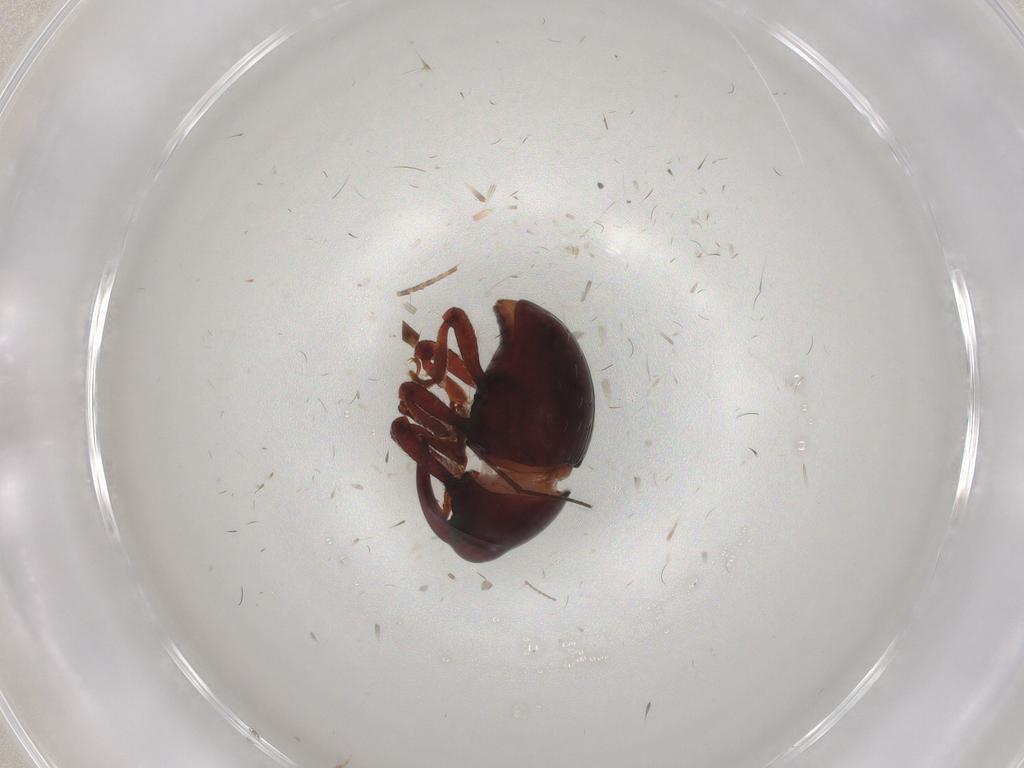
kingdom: Animalia
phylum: Arthropoda
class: Insecta
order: Coleoptera
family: Curculionidae
